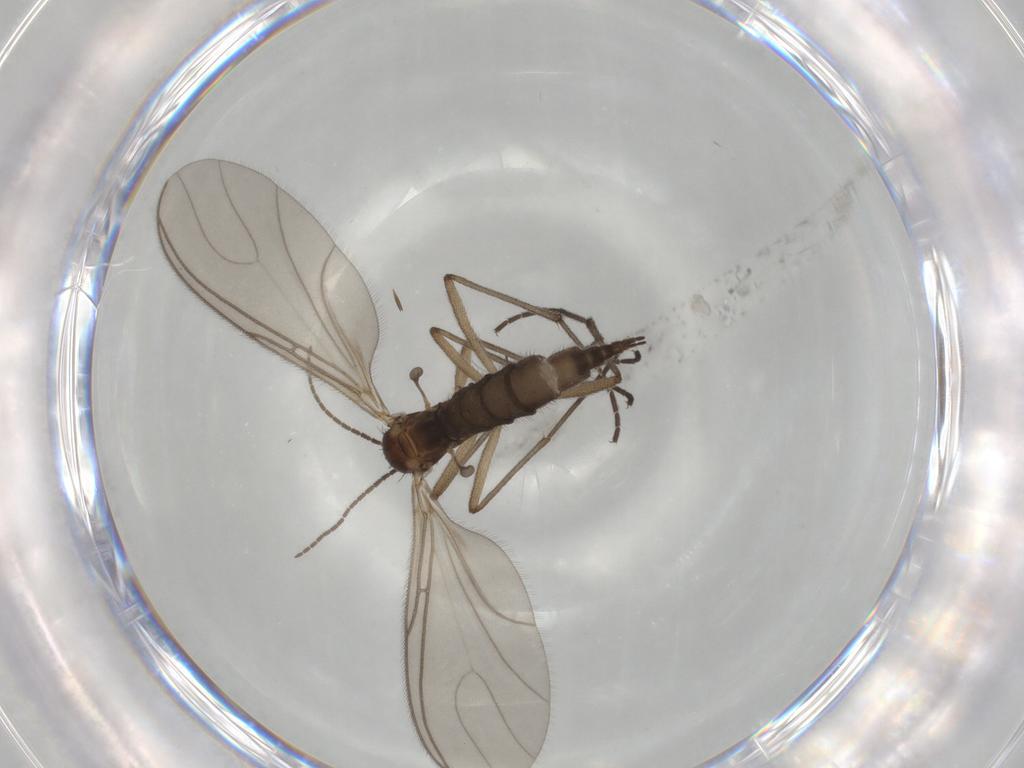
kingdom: Animalia
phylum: Arthropoda
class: Insecta
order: Diptera
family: Sciaridae
